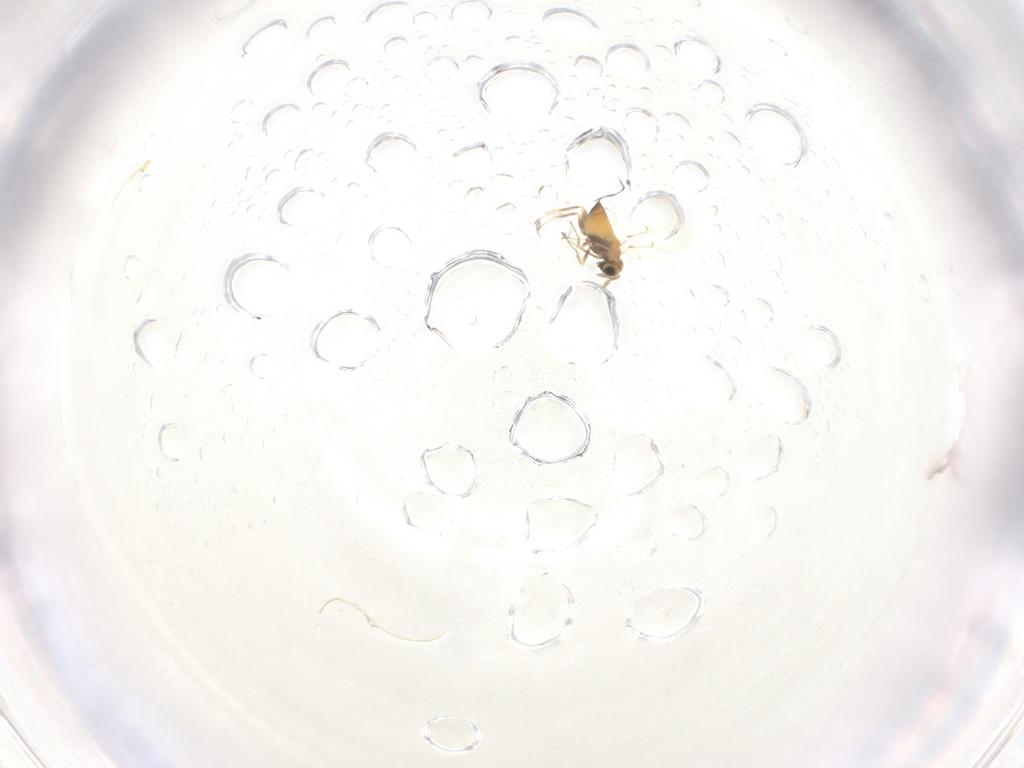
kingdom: Animalia
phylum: Arthropoda
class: Insecta
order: Hymenoptera
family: Trichogrammatidae
